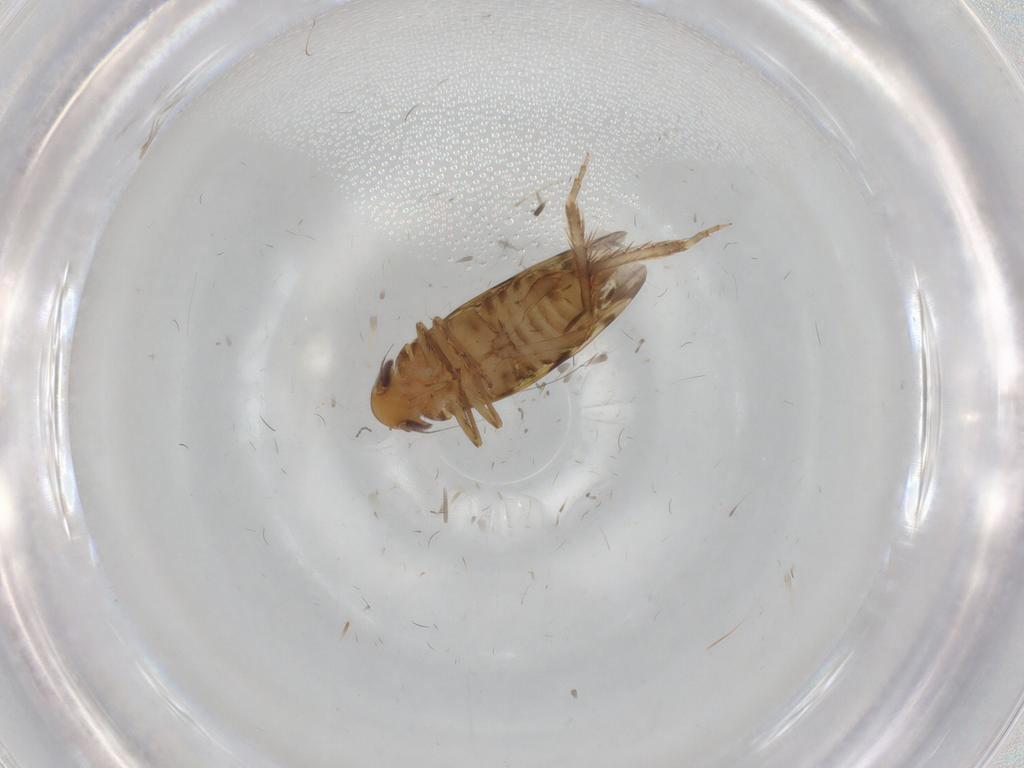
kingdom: Animalia
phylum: Arthropoda
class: Insecta
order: Hemiptera
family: Cicadellidae
